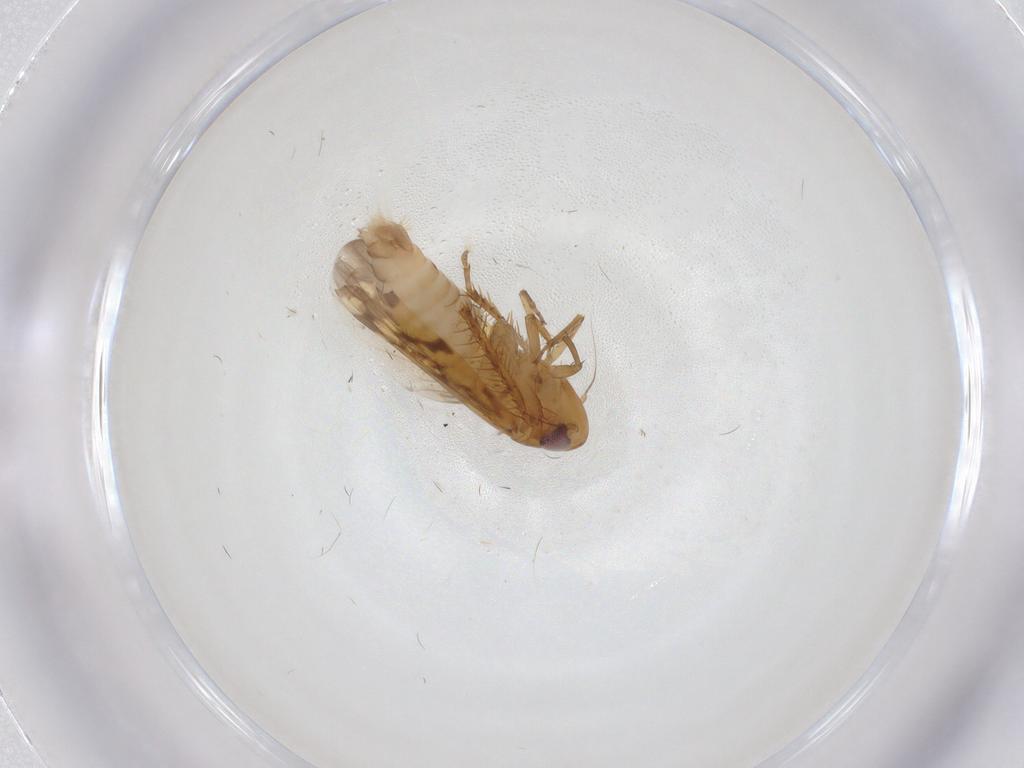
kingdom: Animalia
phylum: Arthropoda
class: Insecta
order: Hemiptera
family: Cicadellidae
